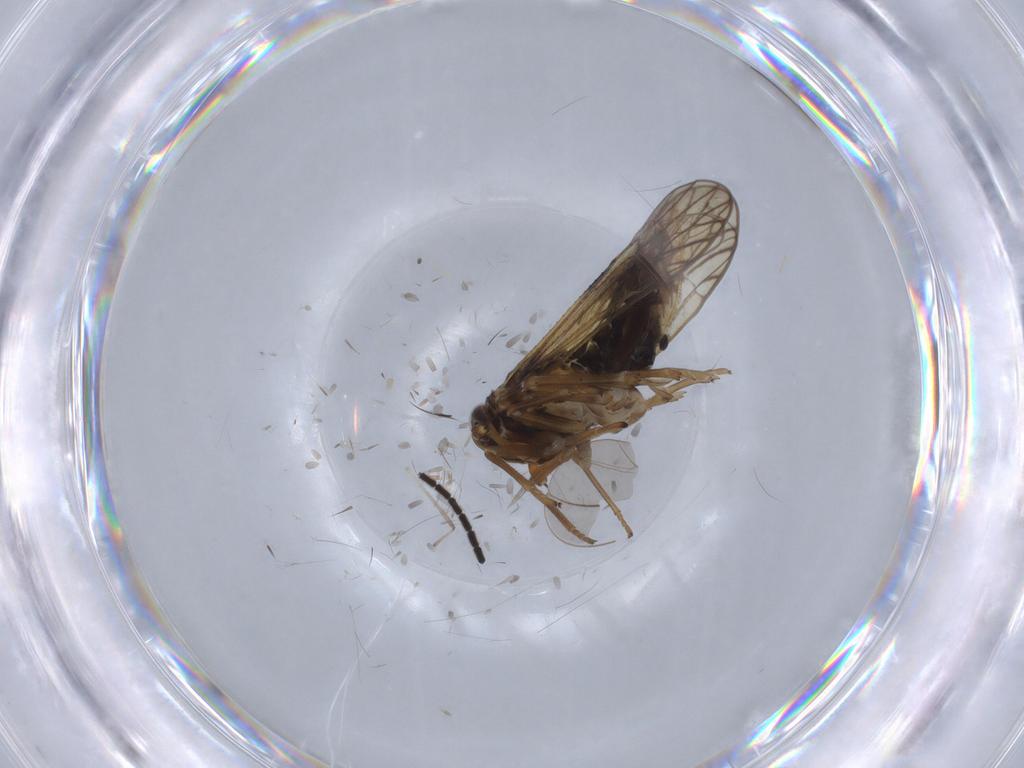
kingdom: Animalia
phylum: Arthropoda
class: Insecta
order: Hemiptera
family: Delphacidae
